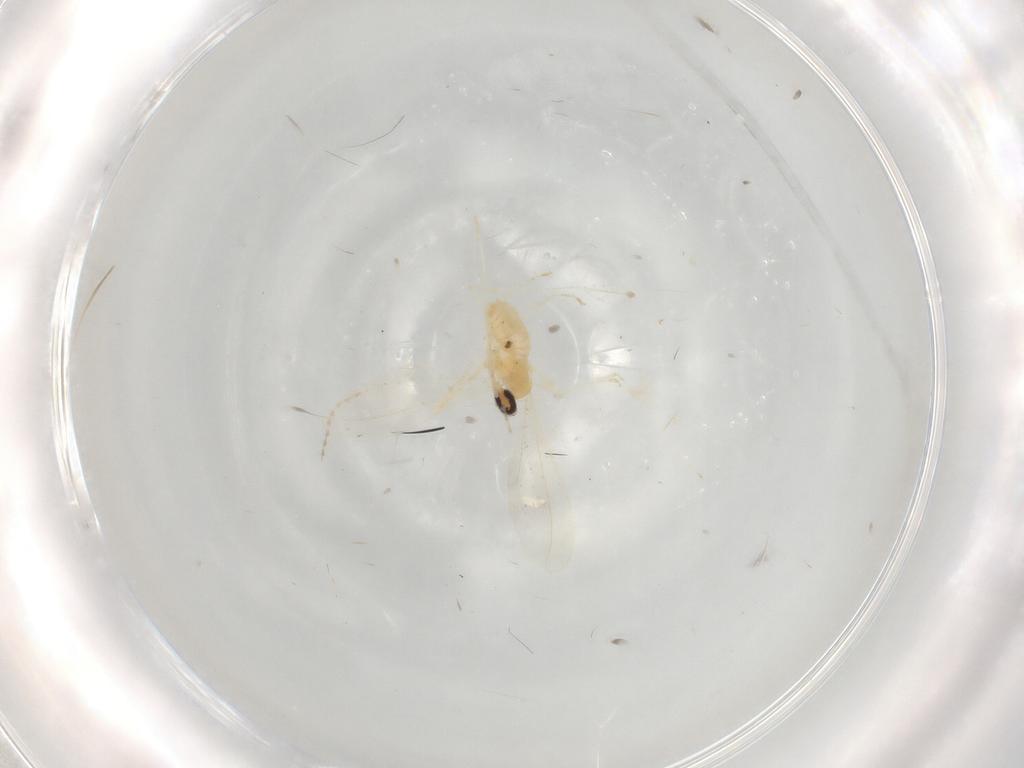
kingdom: Animalia
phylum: Arthropoda
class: Insecta
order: Diptera
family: Cecidomyiidae
